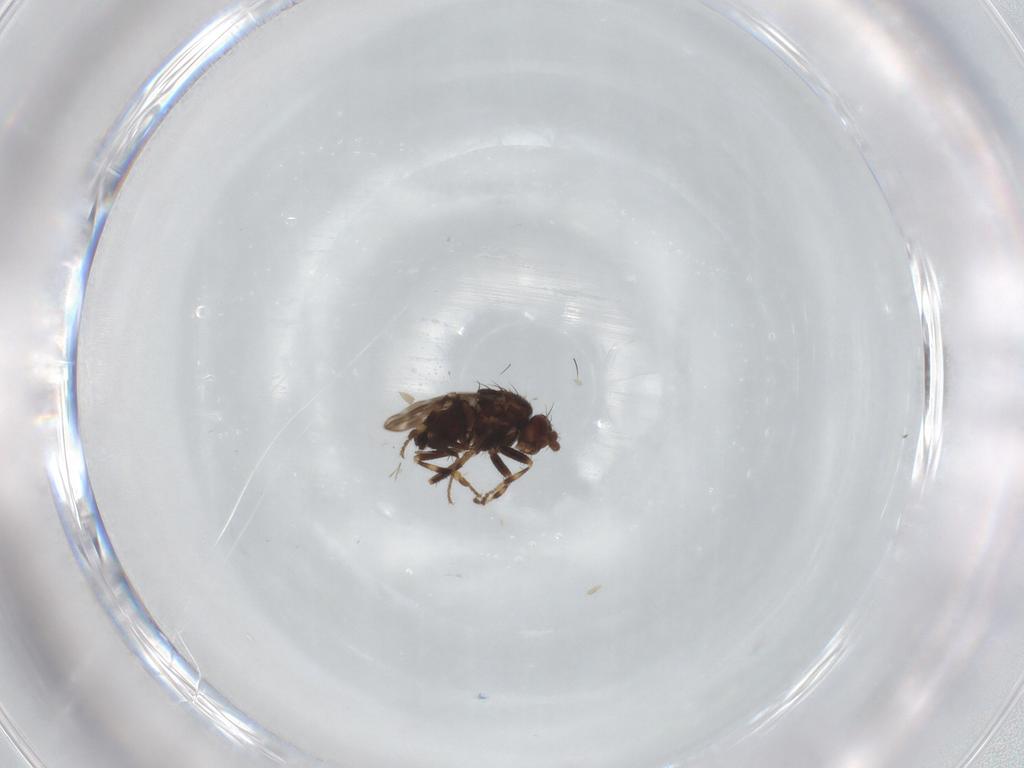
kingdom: Animalia
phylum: Arthropoda
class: Insecta
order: Diptera
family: Sphaeroceridae
